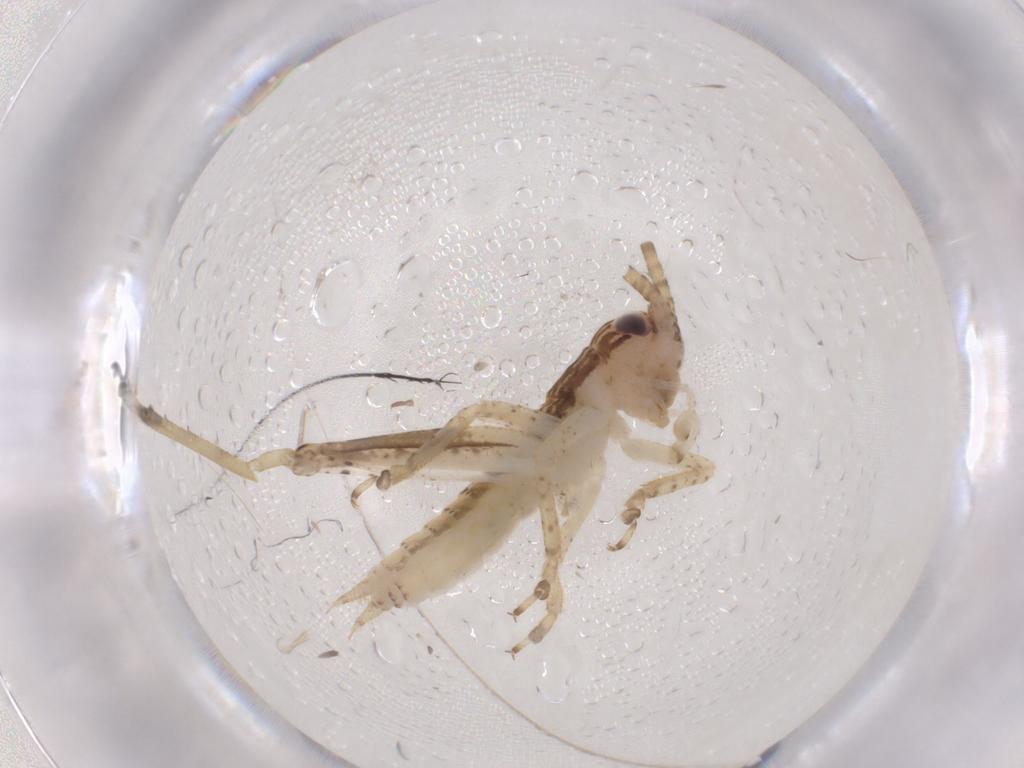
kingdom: Animalia
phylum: Arthropoda
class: Insecta
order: Orthoptera
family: Gryllidae
